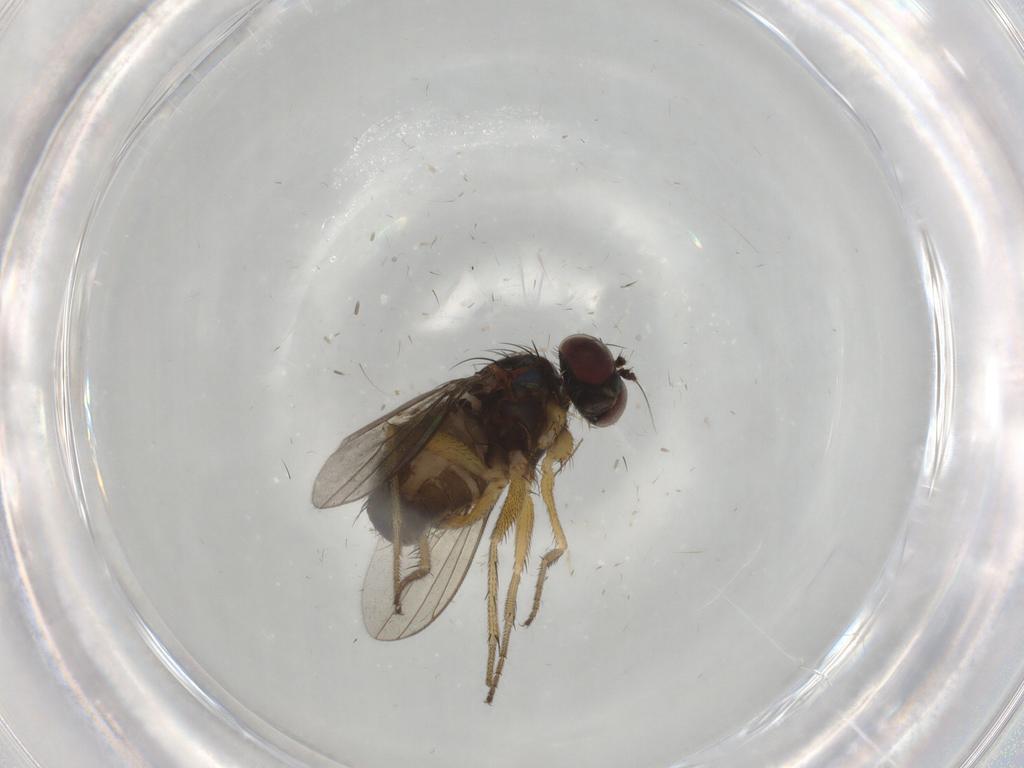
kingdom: Animalia
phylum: Arthropoda
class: Insecta
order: Diptera
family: Dolichopodidae
